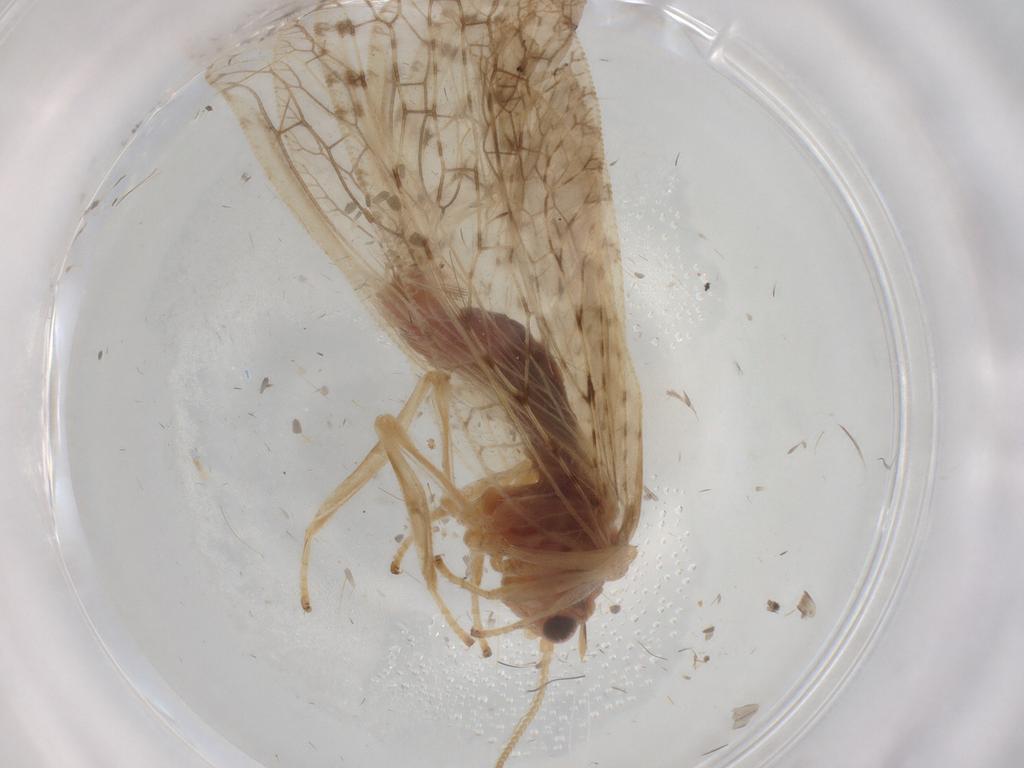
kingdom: Animalia
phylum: Arthropoda
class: Insecta
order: Neuroptera
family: Hemerobiidae
